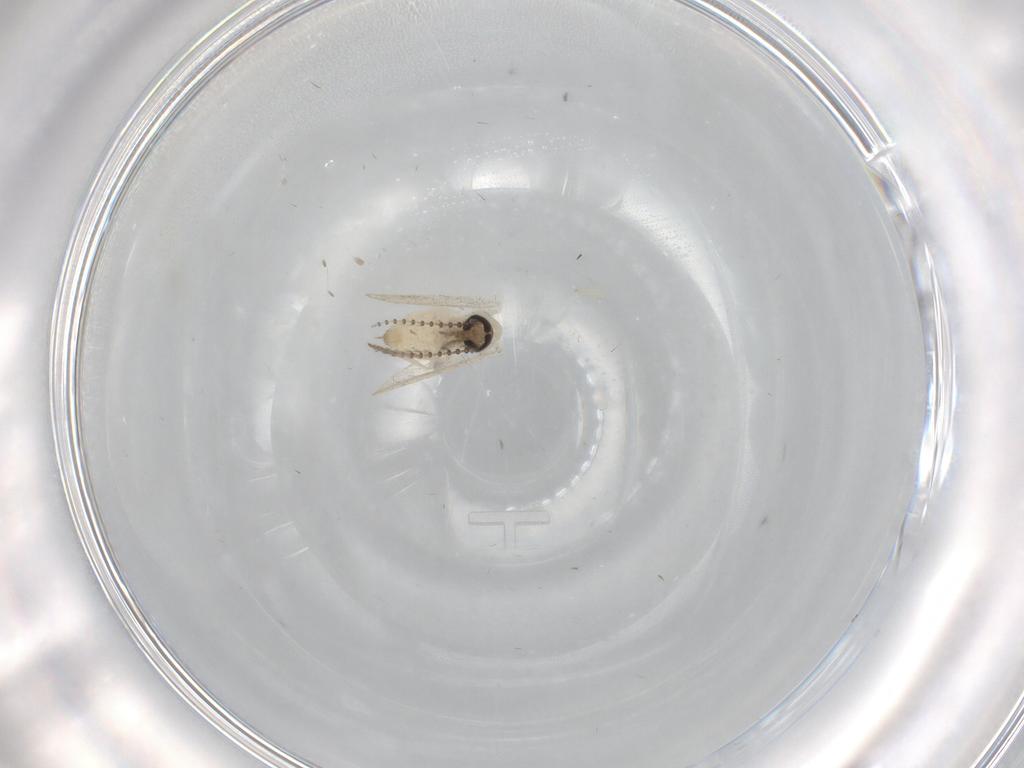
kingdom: Animalia
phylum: Arthropoda
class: Insecta
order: Diptera
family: Psychodidae
